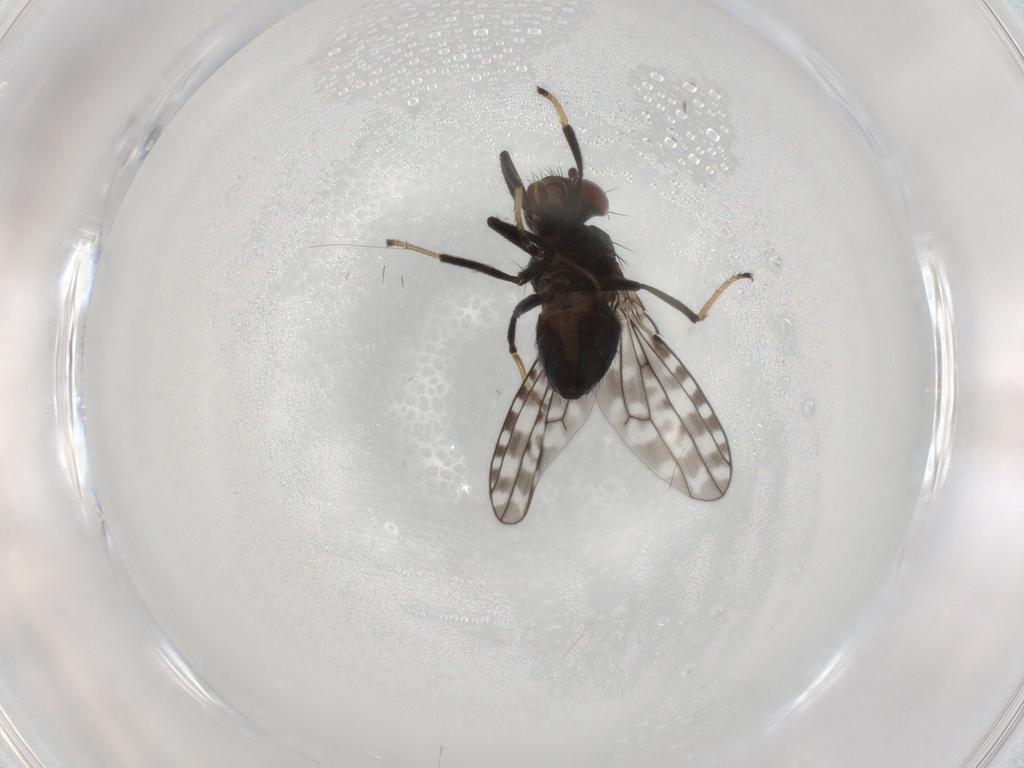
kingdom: Animalia
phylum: Arthropoda
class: Insecta
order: Diptera
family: Ephydridae
